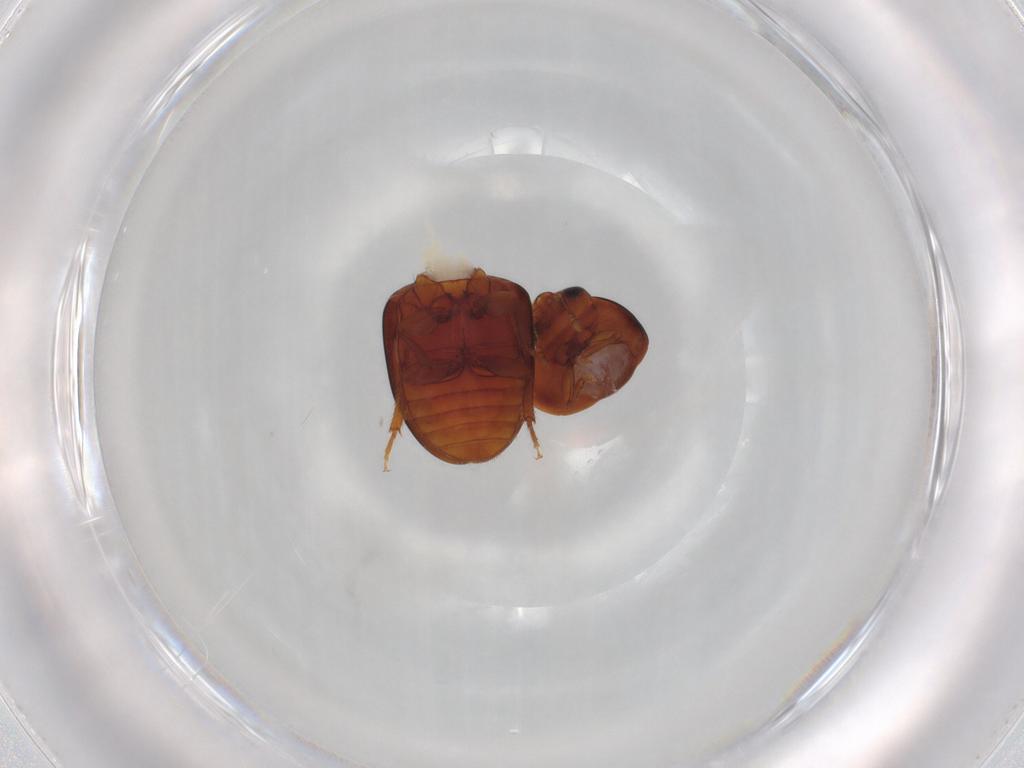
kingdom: Animalia
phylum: Arthropoda
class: Insecta
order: Coleoptera
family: Phalacridae
